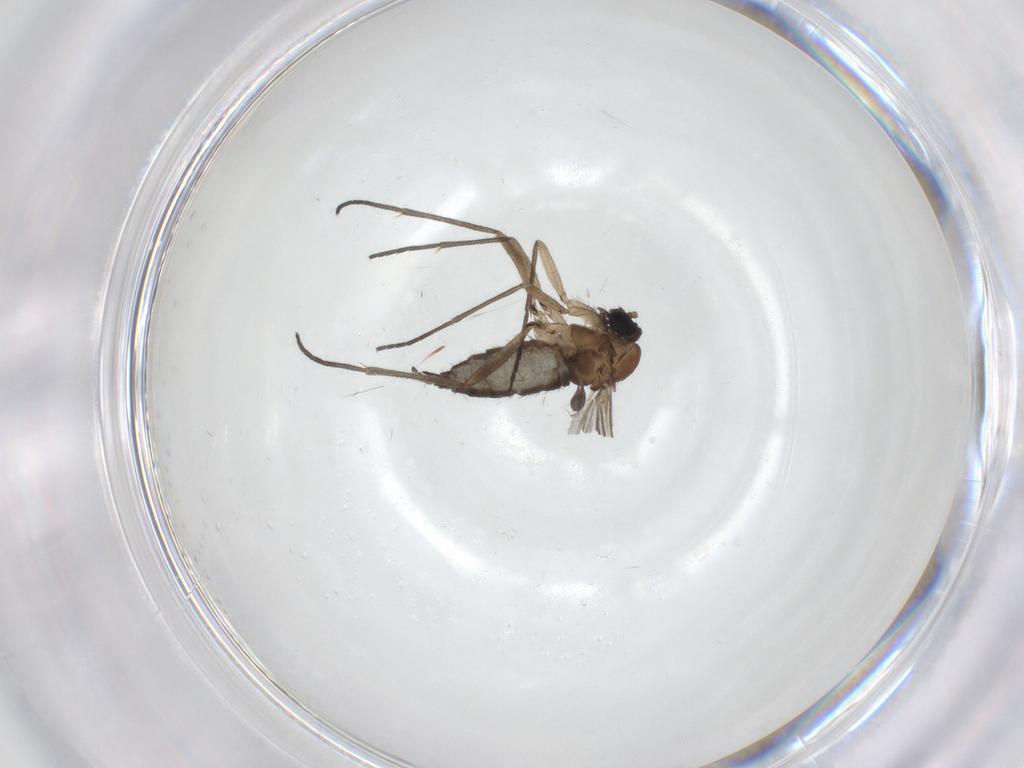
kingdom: Animalia
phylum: Arthropoda
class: Insecta
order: Diptera
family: Sciaridae
